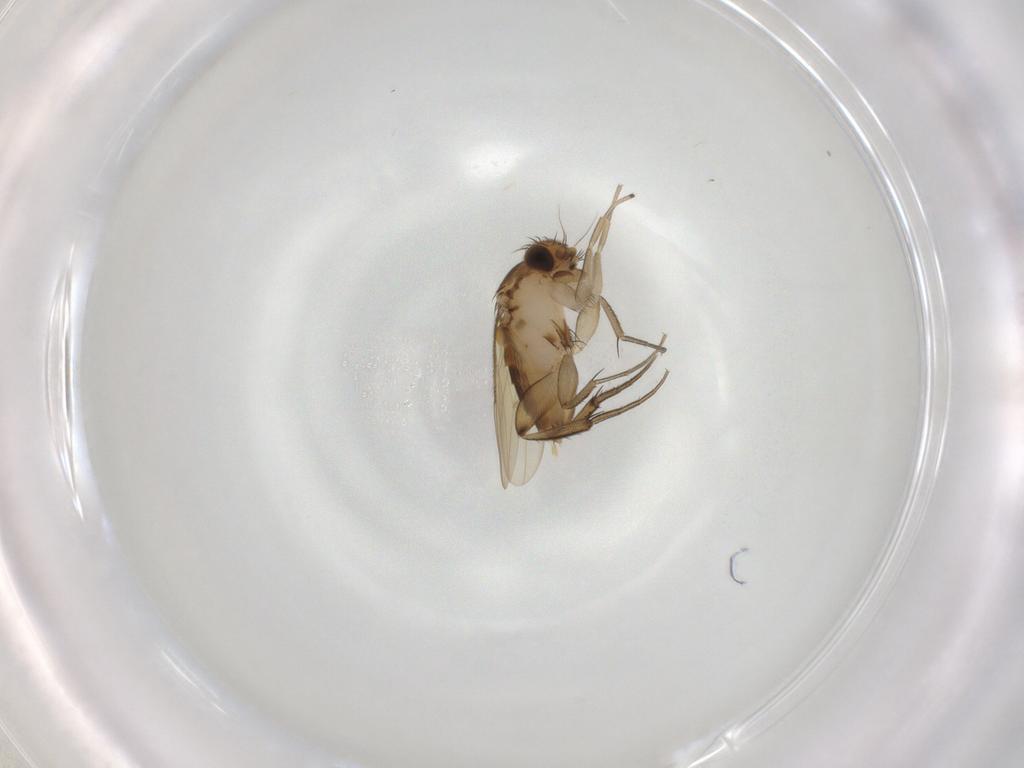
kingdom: Animalia
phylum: Arthropoda
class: Insecta
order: Diptera
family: Phoridae
